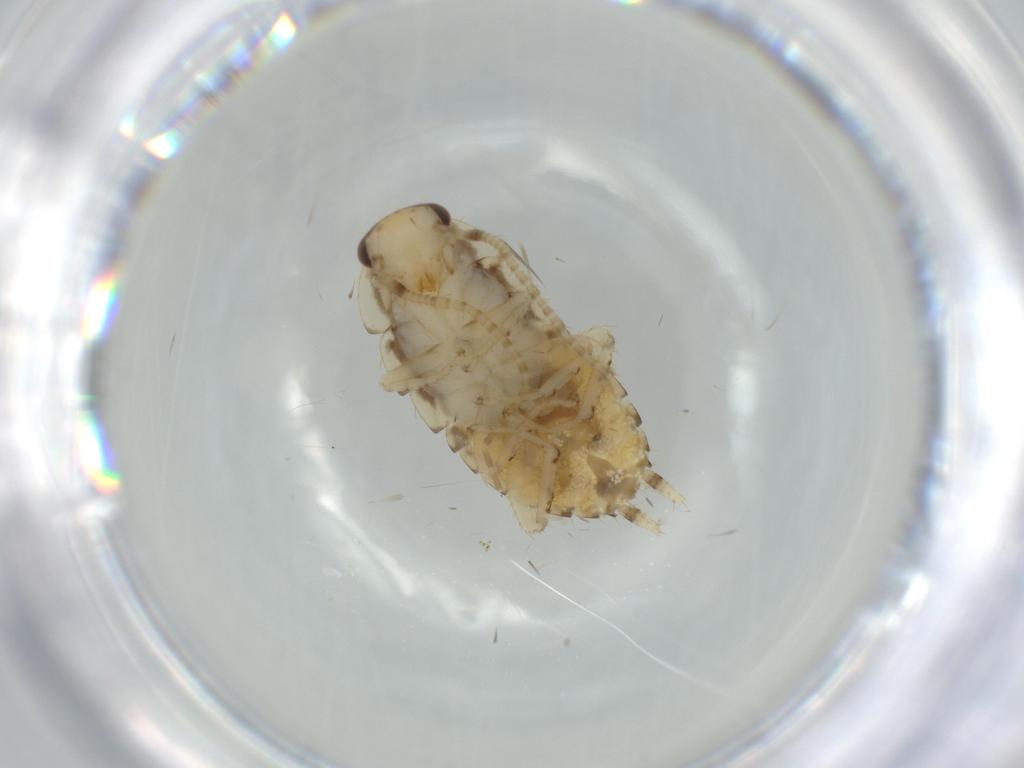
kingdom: Animalia
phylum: Arthropoda
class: Insecta
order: Blattodea
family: Ectobiidae
